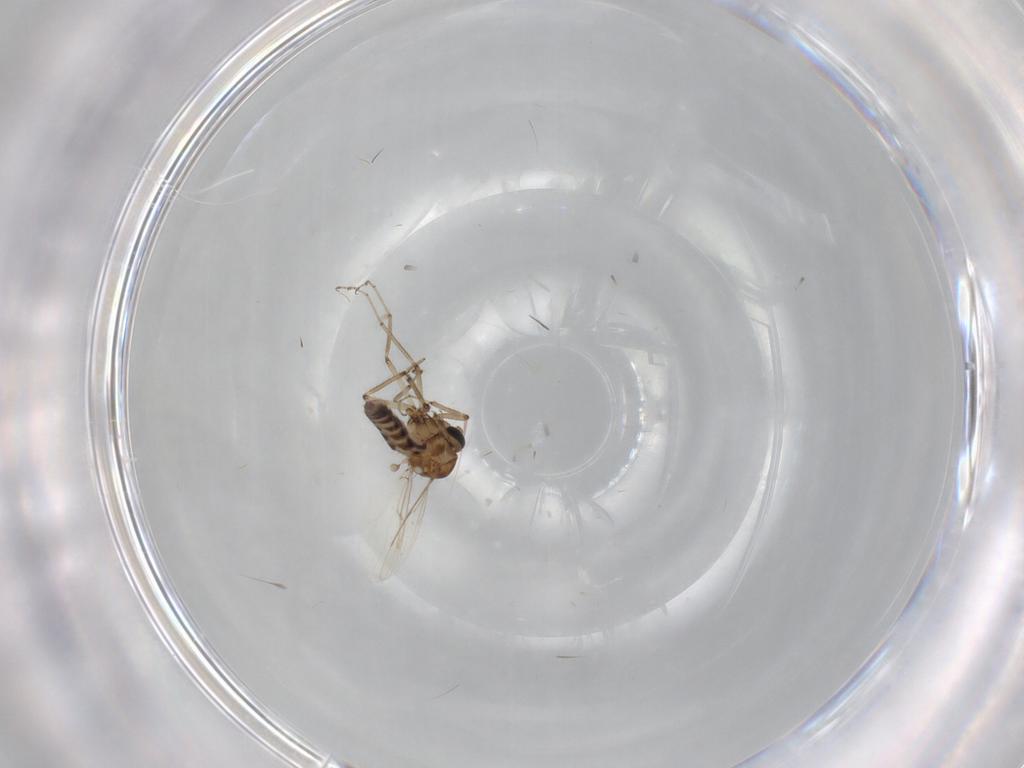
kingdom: Animalia
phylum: Arthropoda
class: Insecta
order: Diptera
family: Ceratopogonidae
